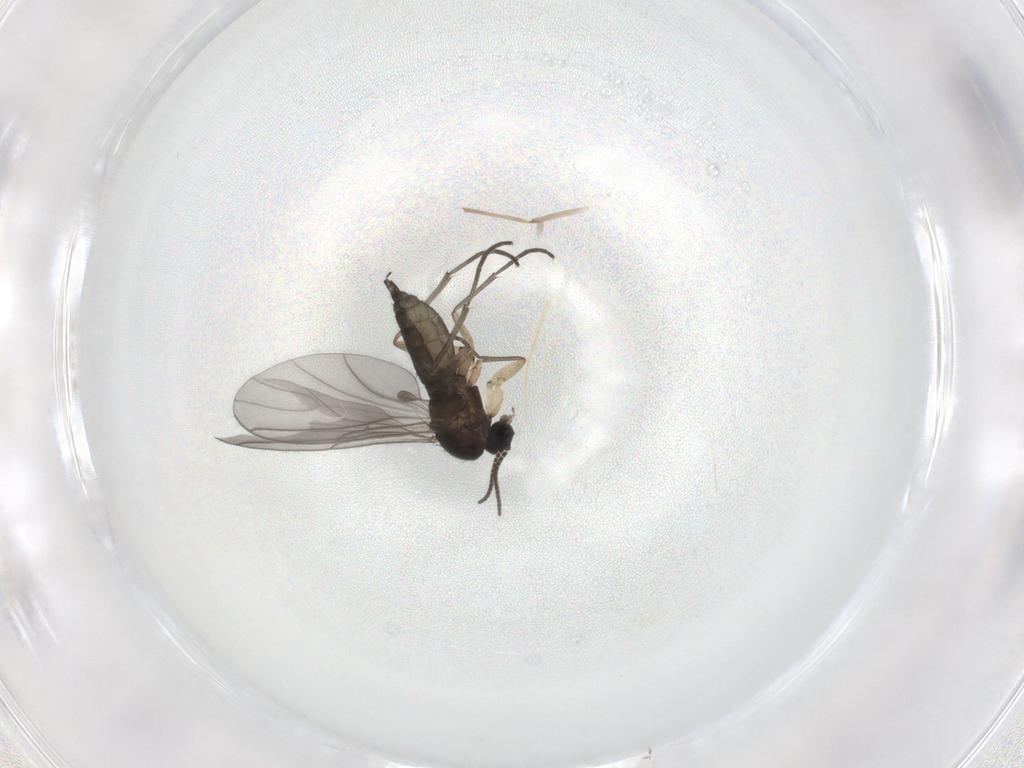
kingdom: Animalia
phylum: Arthropoda
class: Insecta
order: Diptera
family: Sciaridae
